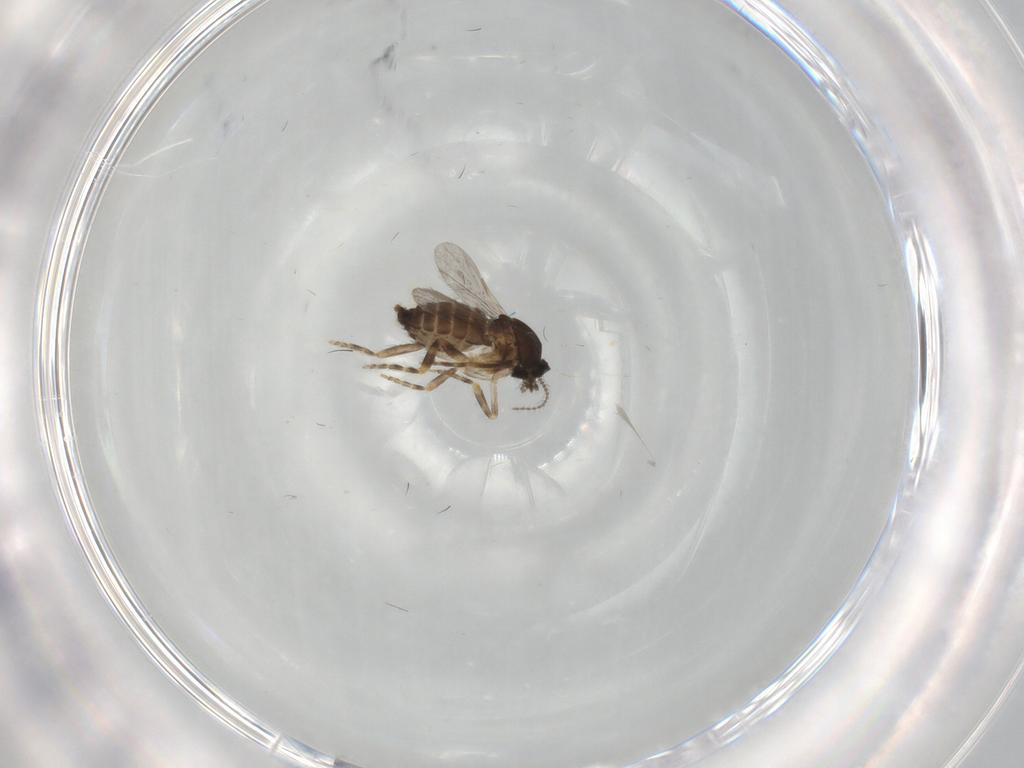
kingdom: Animalia
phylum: Arthropoda
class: Insecta
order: Diptera
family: Ceratopogonidae
